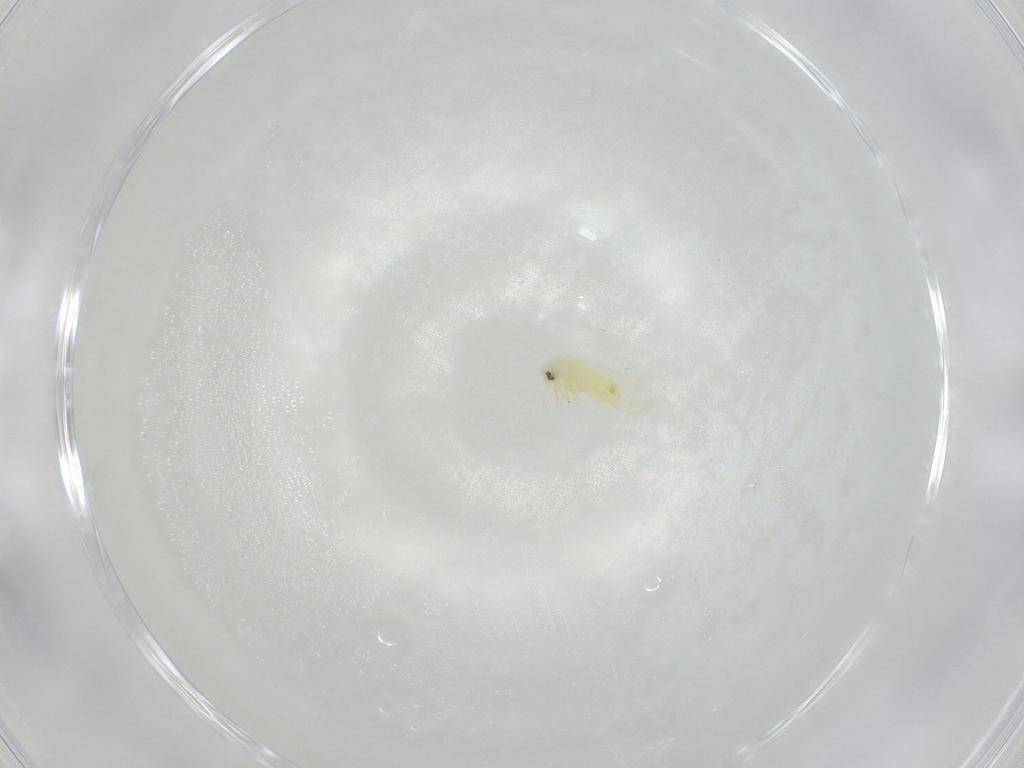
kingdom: Animalia
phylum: Arthropoda
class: Insecta
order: Hemiptera
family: Aleyrodidae
